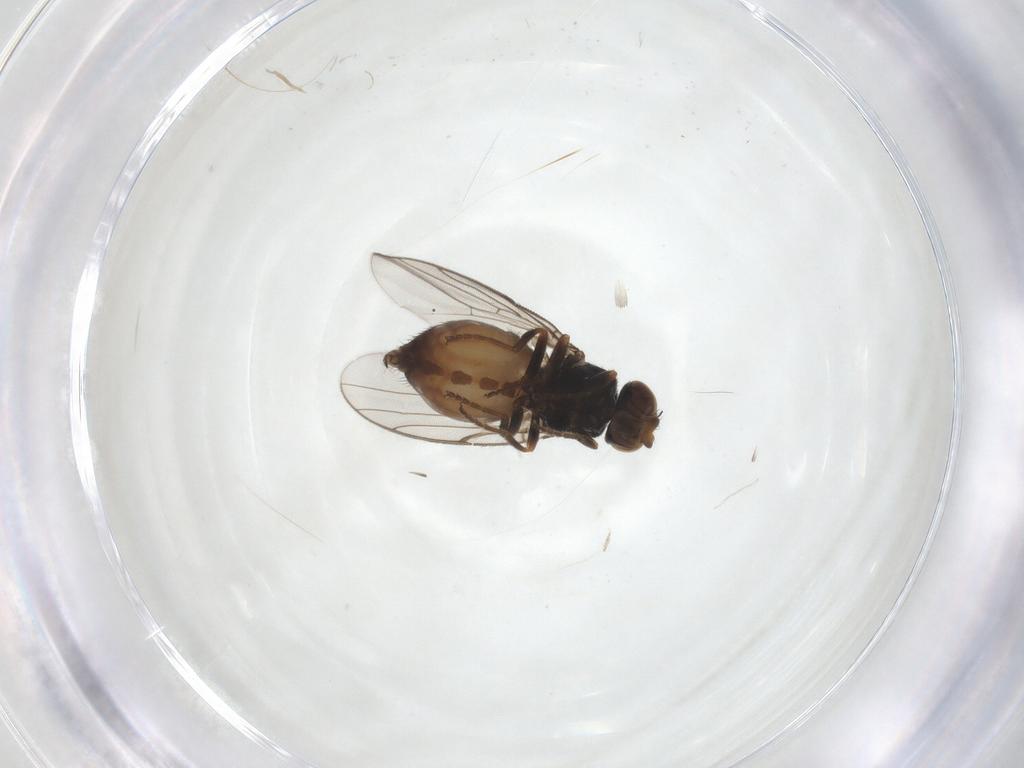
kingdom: Animalia
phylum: Arthropoda
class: Insecta
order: Diptera
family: Chloropidae
